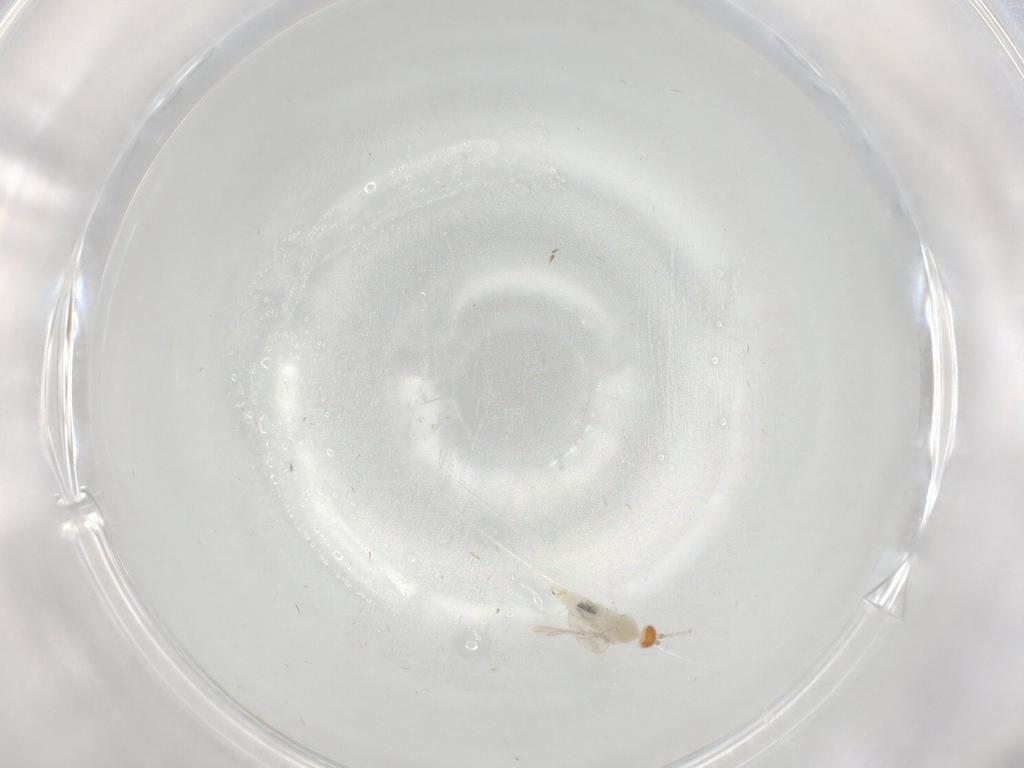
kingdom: Animalia
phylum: Arthropoda
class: Insecta
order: Diptera
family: Cecidomyiidae
